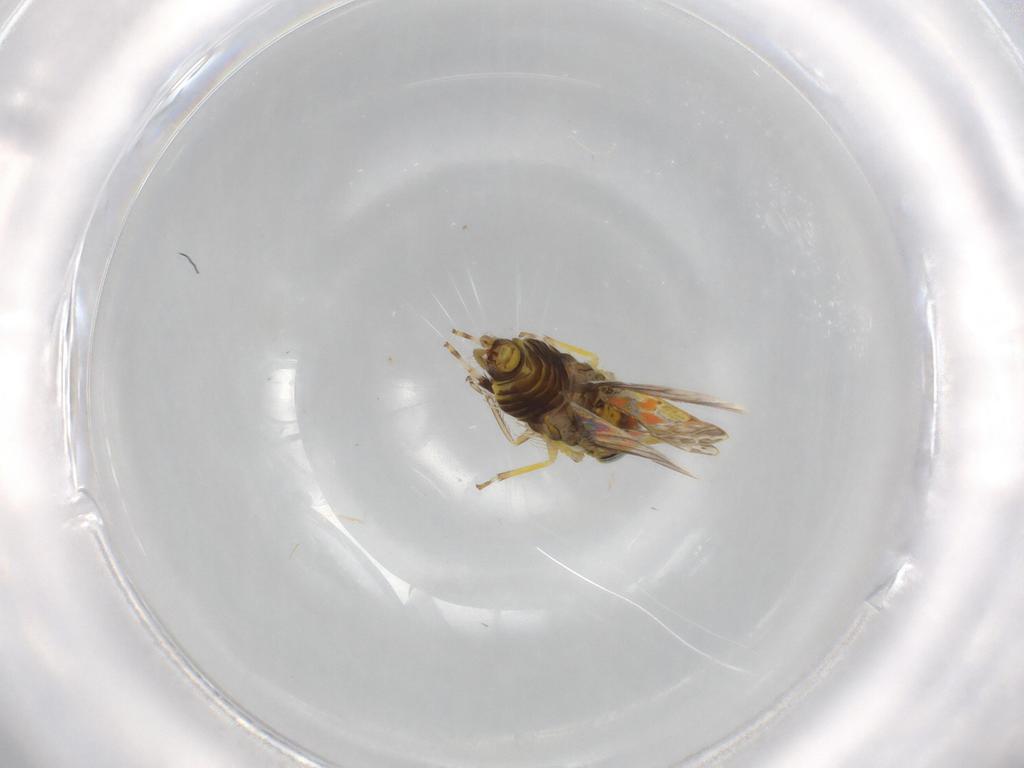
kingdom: Animalia
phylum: Arthropoda
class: Insecta
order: Hemiptera
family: Cicadellidae
